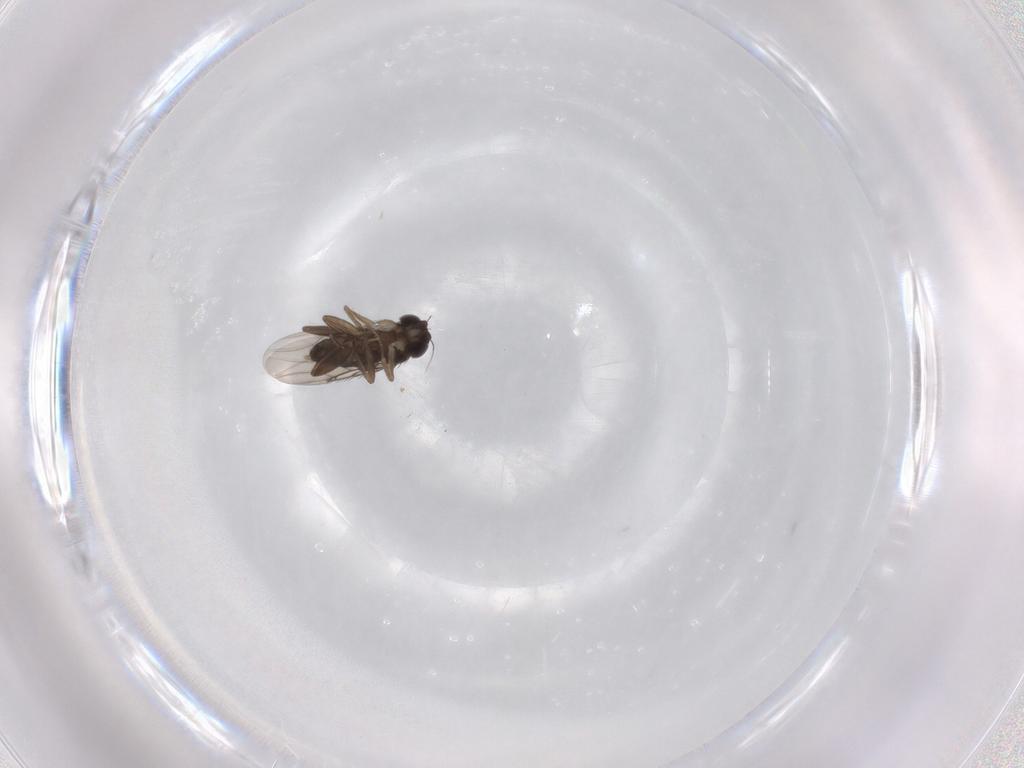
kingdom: Animalia
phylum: Arthropoda
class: Insecta
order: Diptera
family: Phoridae
